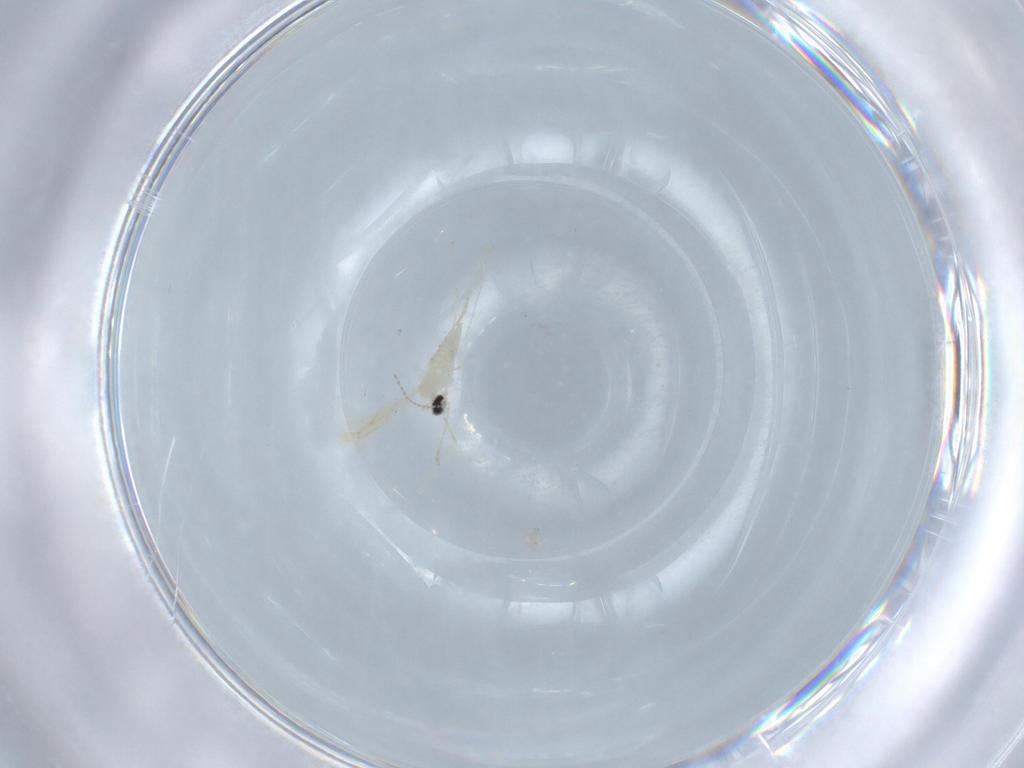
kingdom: Animalia
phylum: Arthropoda
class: Insecta
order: Diptera
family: Cecidomyiidae
